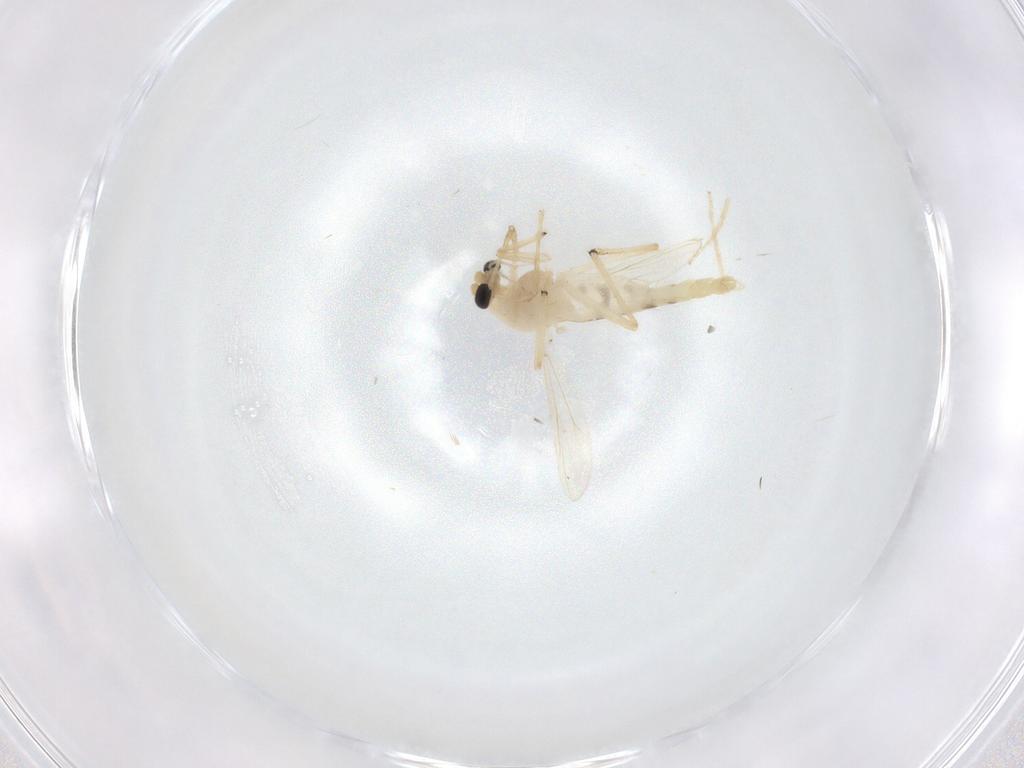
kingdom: Animalia
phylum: Arthropoda
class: Insecta
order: Diptera
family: Chironomidae
